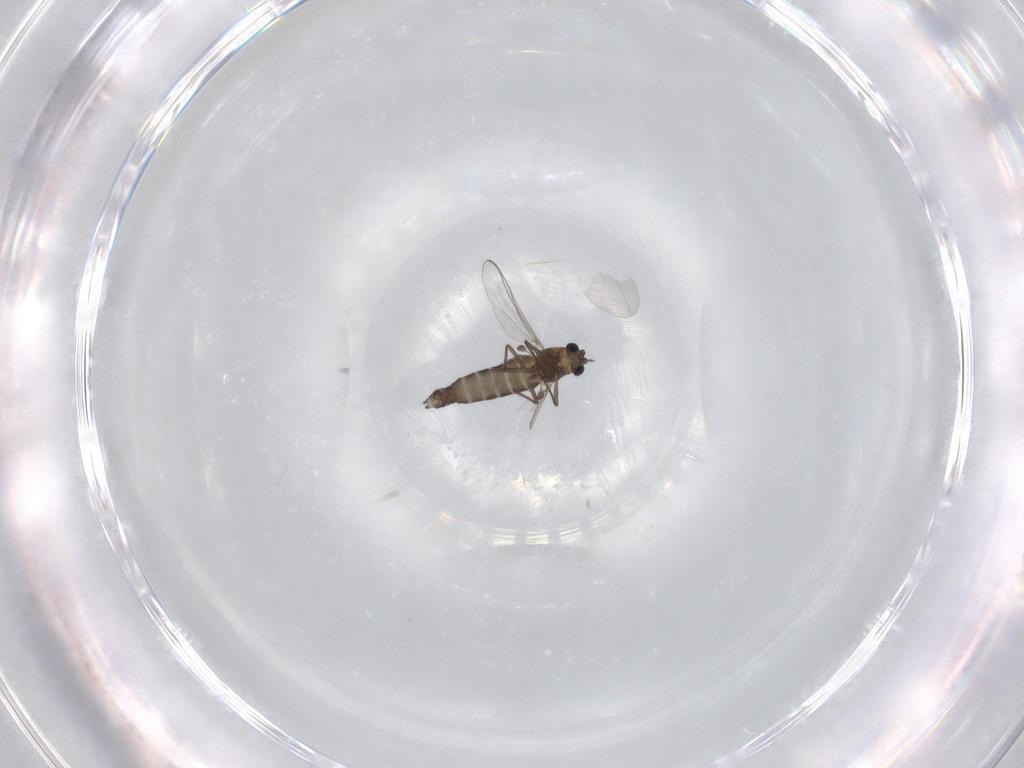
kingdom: Animalia
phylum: Arthropoda
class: Insecta
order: Diptera
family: Chironomidae
